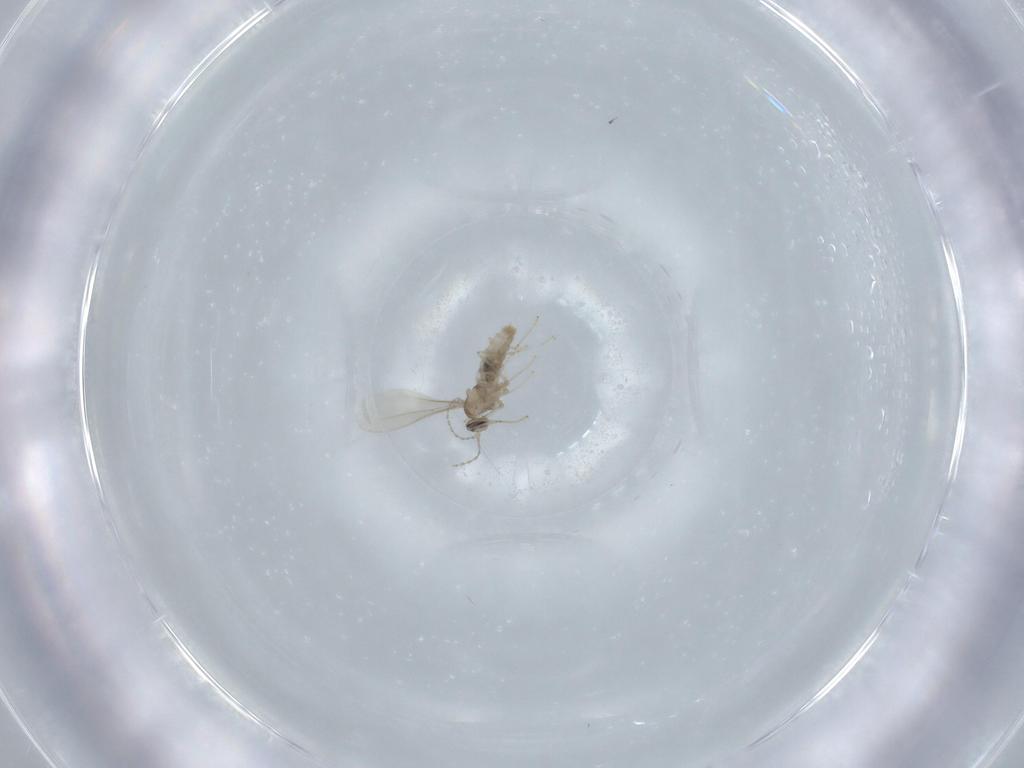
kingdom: Animalia
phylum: Arthropoda
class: Insecta
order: Diptera
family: Cecidomyiidae
